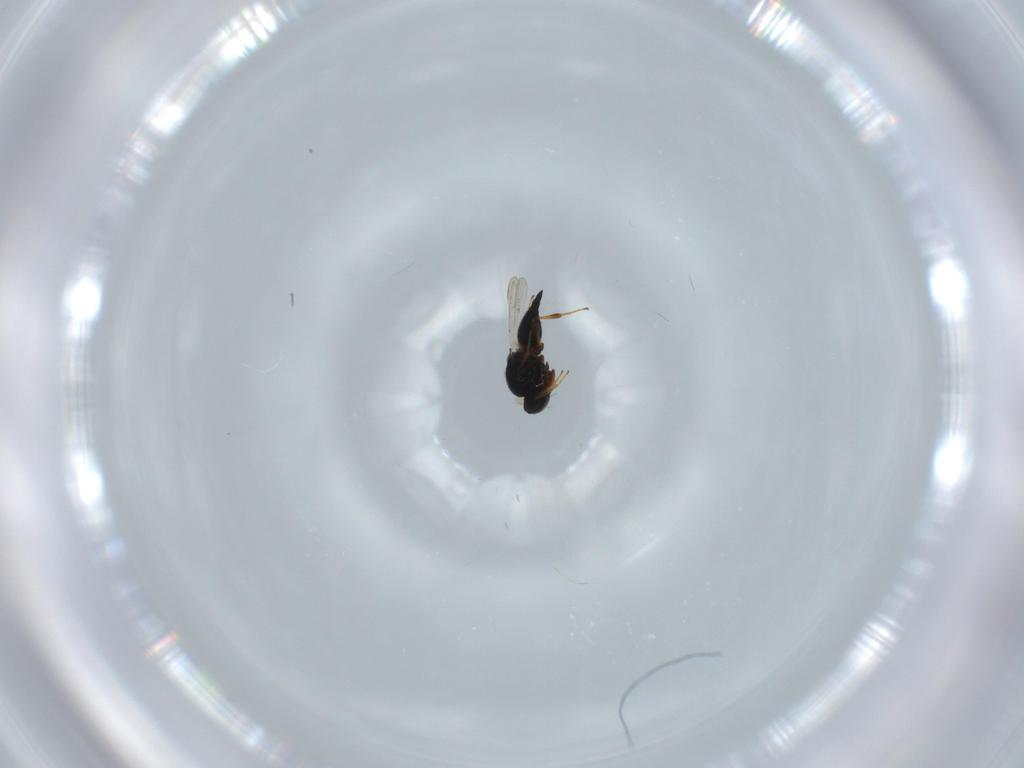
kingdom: Animalia
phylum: Arthropoda
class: Insecta
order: Hymenoptera
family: Platygastridae
